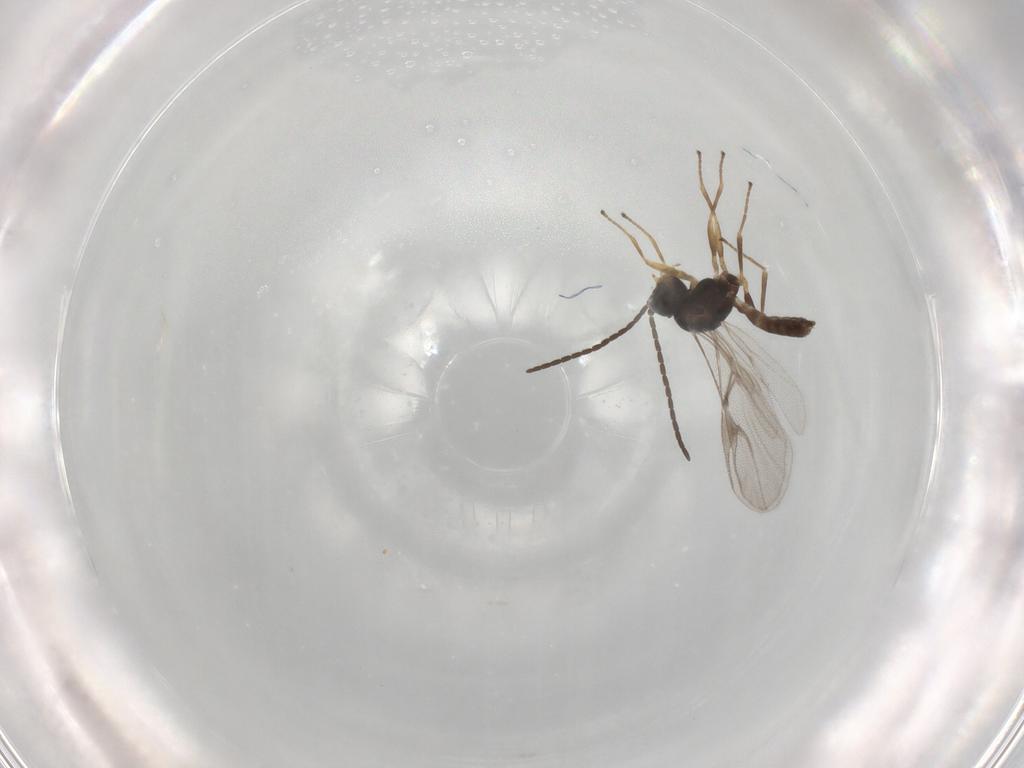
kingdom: Animalia
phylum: Arthropoda
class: Insecta
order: Hymenoptera
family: Braconidae
